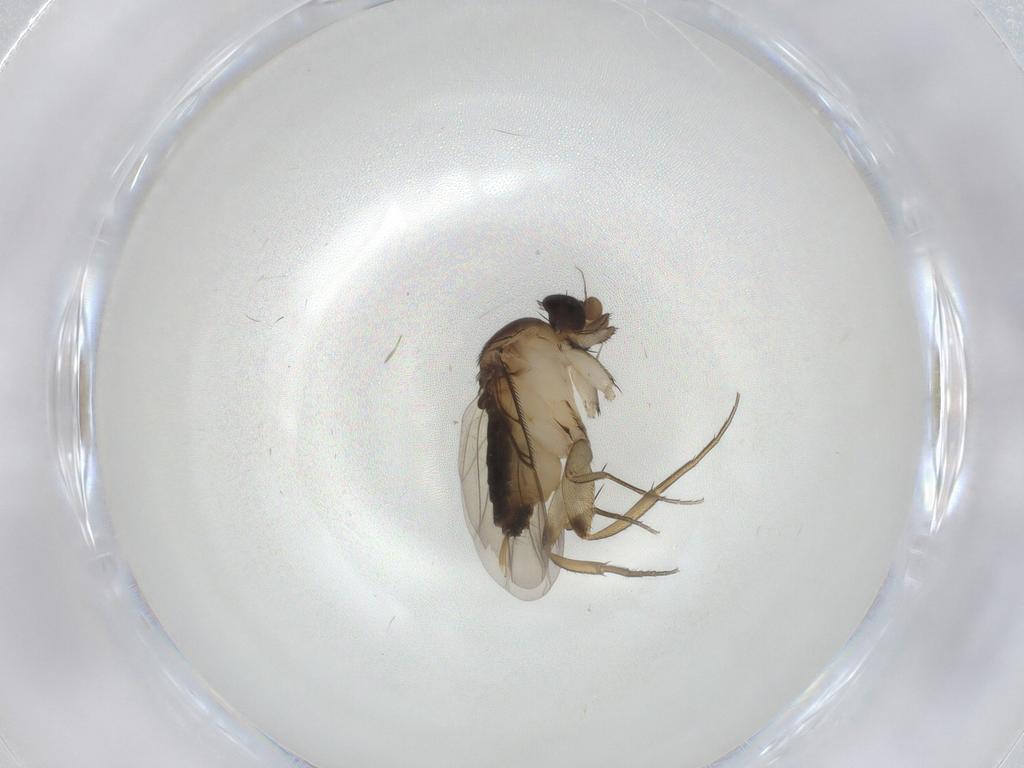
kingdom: Animalia
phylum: Arthropoda
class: Insecta
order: Diptera
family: Phoridae
